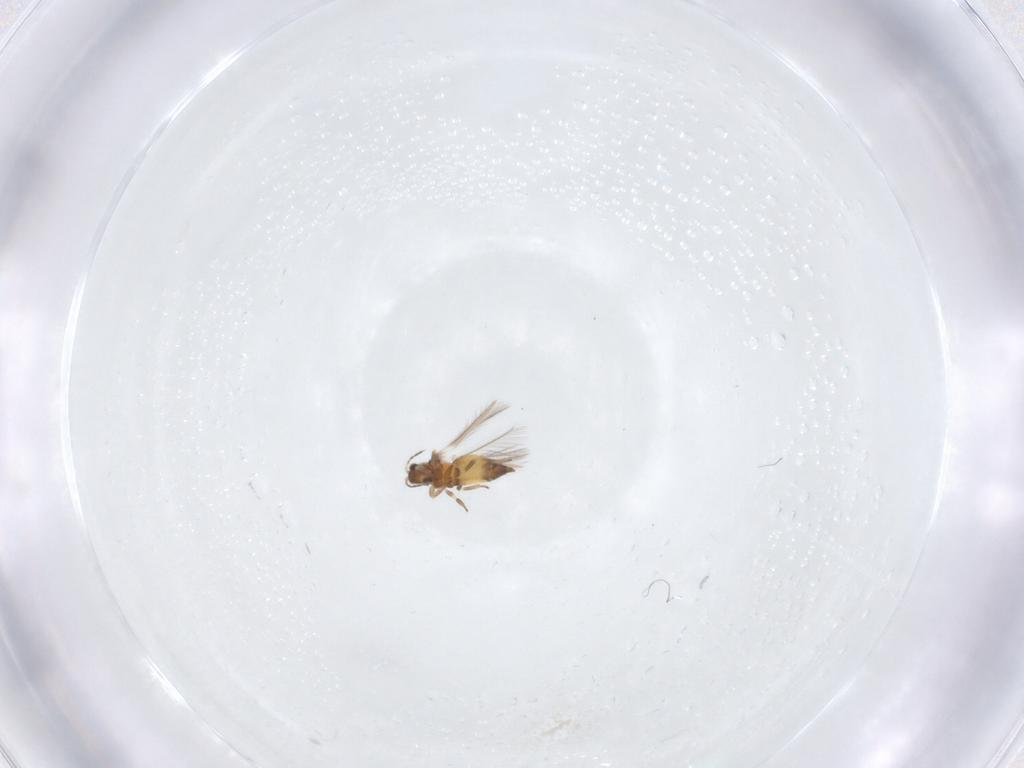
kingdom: Animalia
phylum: Arthropoda
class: Insecta
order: Thysanoptera
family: Thripidae
